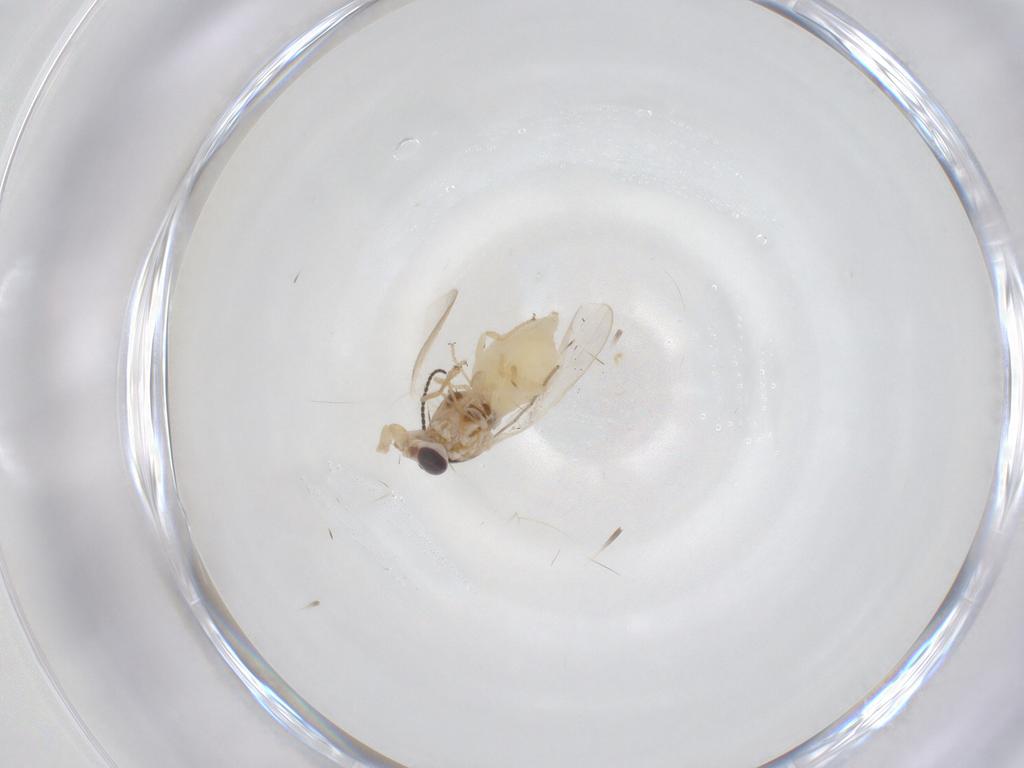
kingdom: Animalia
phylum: Arthropoda
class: Insecta
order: Diptera
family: Chloropidae
